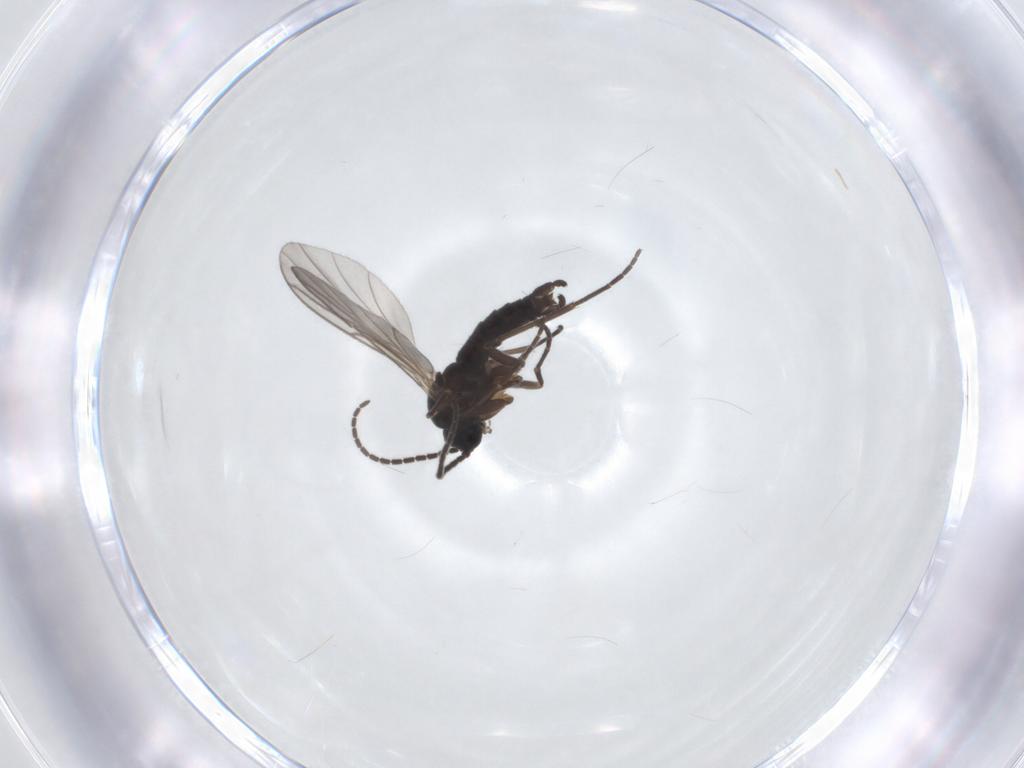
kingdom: Animalia
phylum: Arthropoda
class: Insecta
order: Diptera
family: Sciaridae
